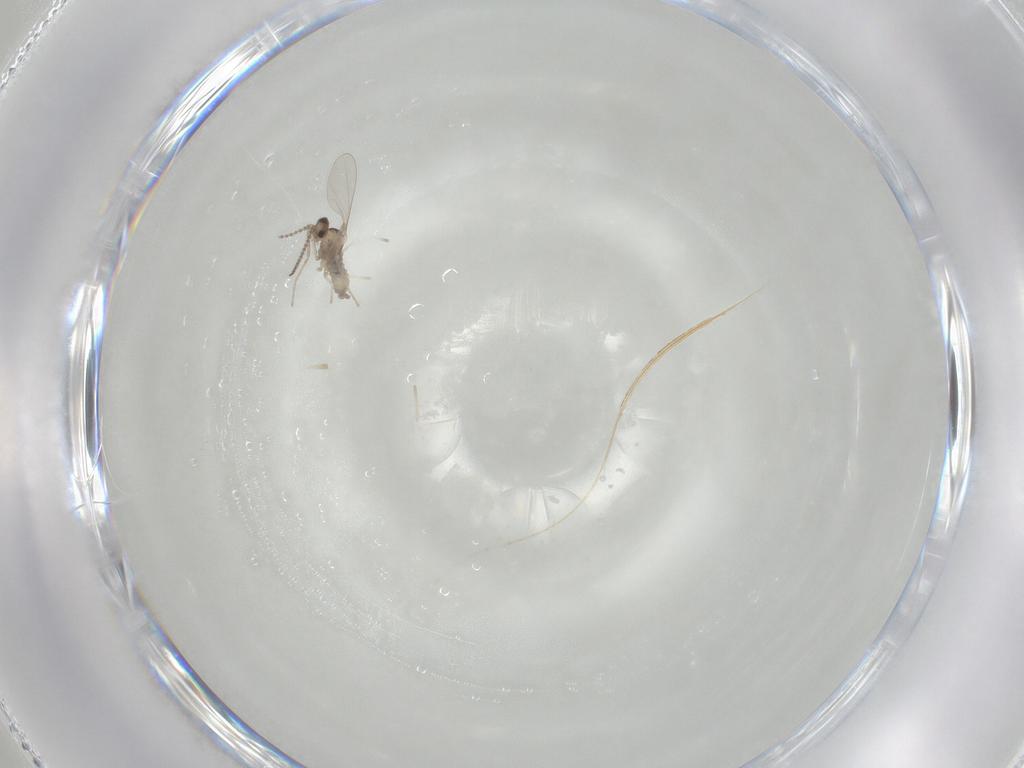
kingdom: Animalia
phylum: Arthropoda
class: Insecta
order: Diptera
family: Cecidomyiidae
